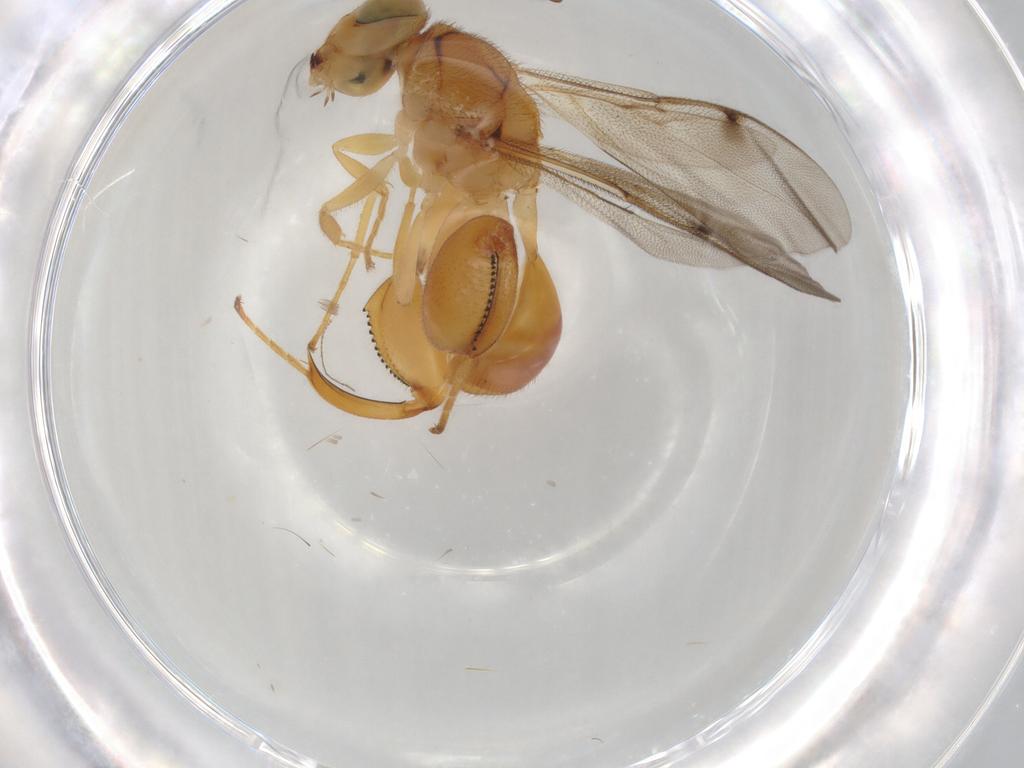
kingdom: Animalia
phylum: Arthropoda
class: Insecta
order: Hymenoptera
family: Chalcididae
